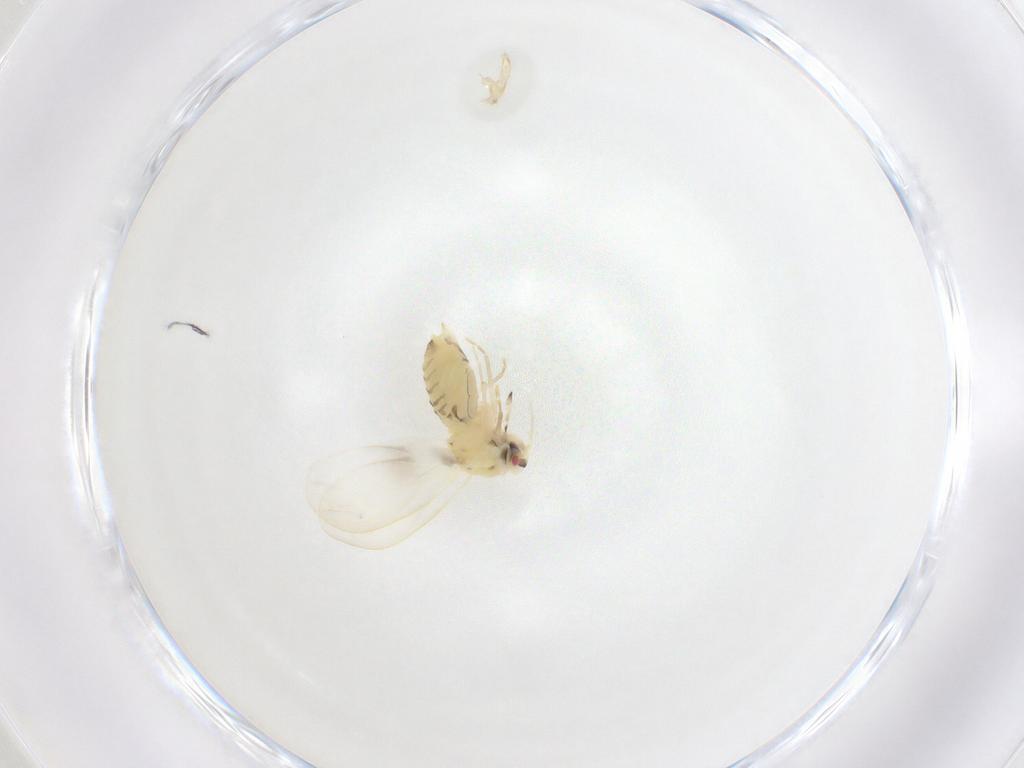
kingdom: Animalia
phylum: Arthropoda
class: Insecta
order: Hemiptera
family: Aleyrodidae
